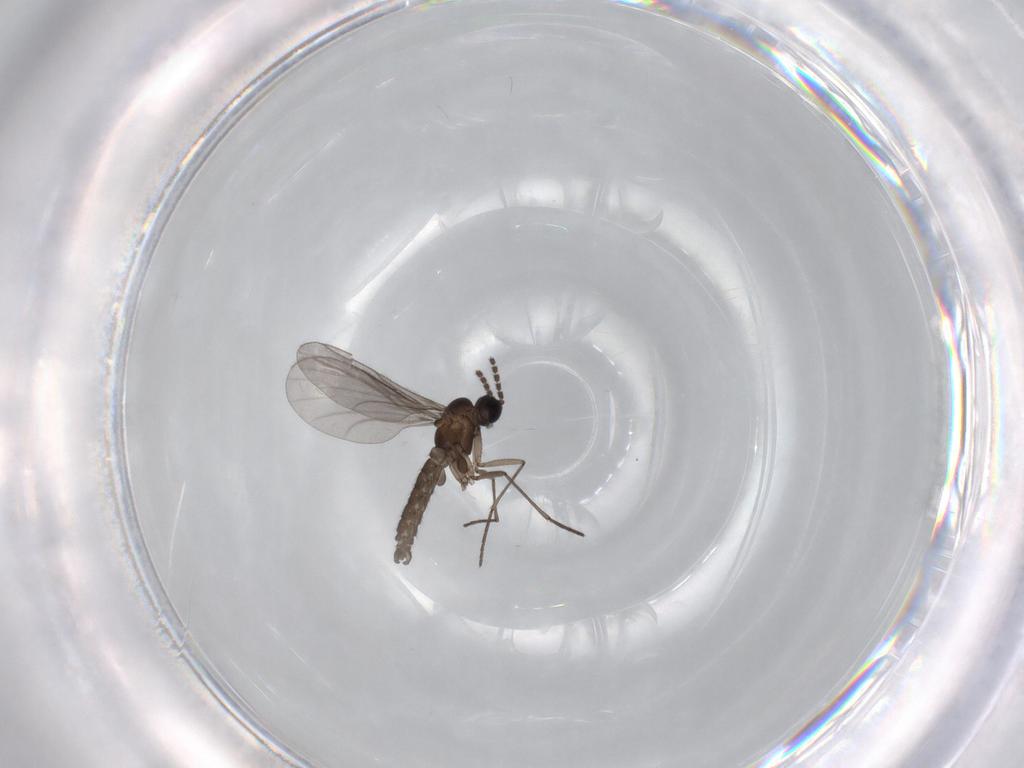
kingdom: Animalia
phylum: Arthropoda
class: Insecta
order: Diptera
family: Sciaridae
